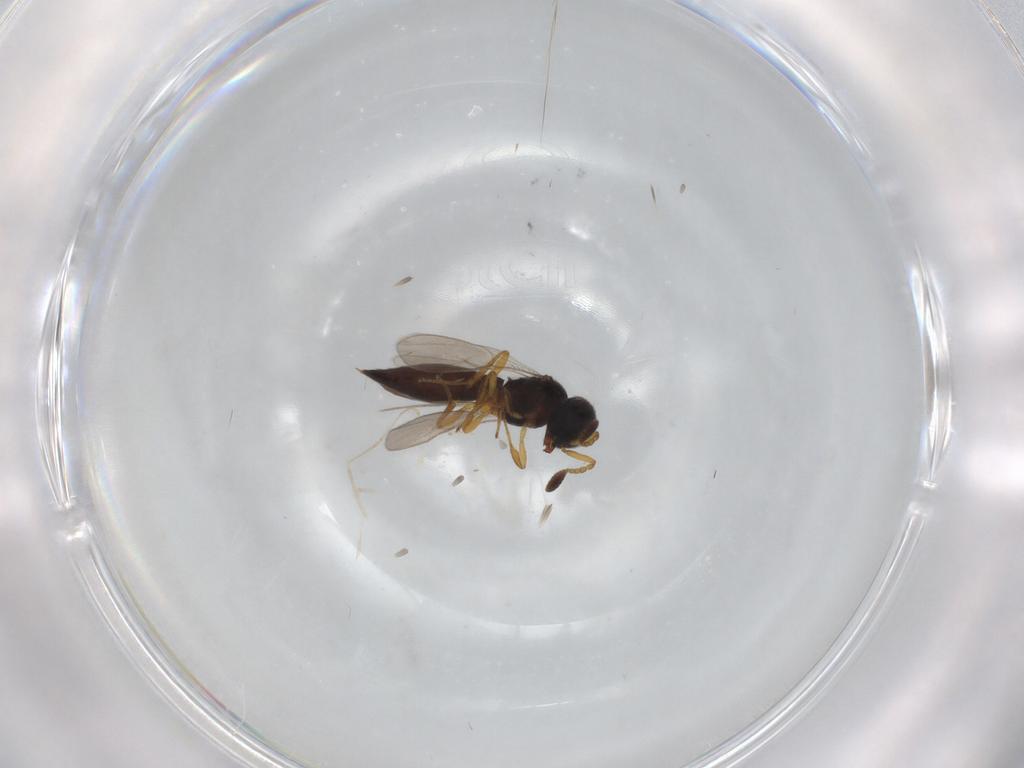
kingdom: Animalia
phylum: Arthropoda
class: Insecta
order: Hymenoptera
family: Scelionidae
